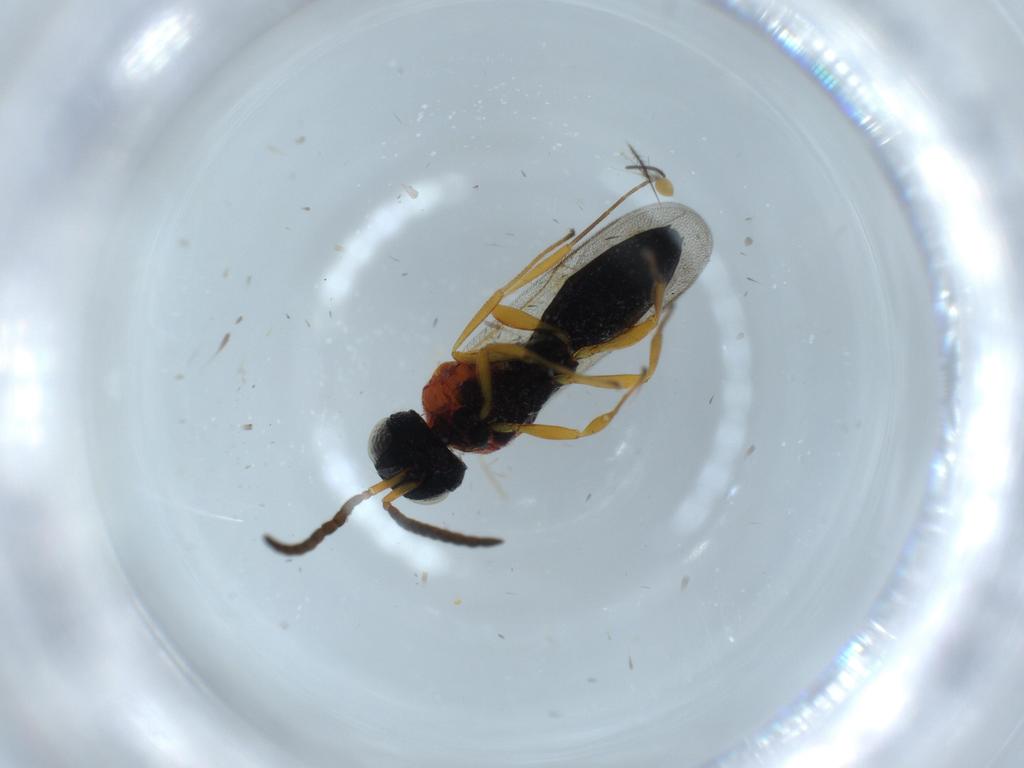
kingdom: Animalia
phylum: Arthropoda
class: Insecta
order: Hymenoptera
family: Scelionidae
